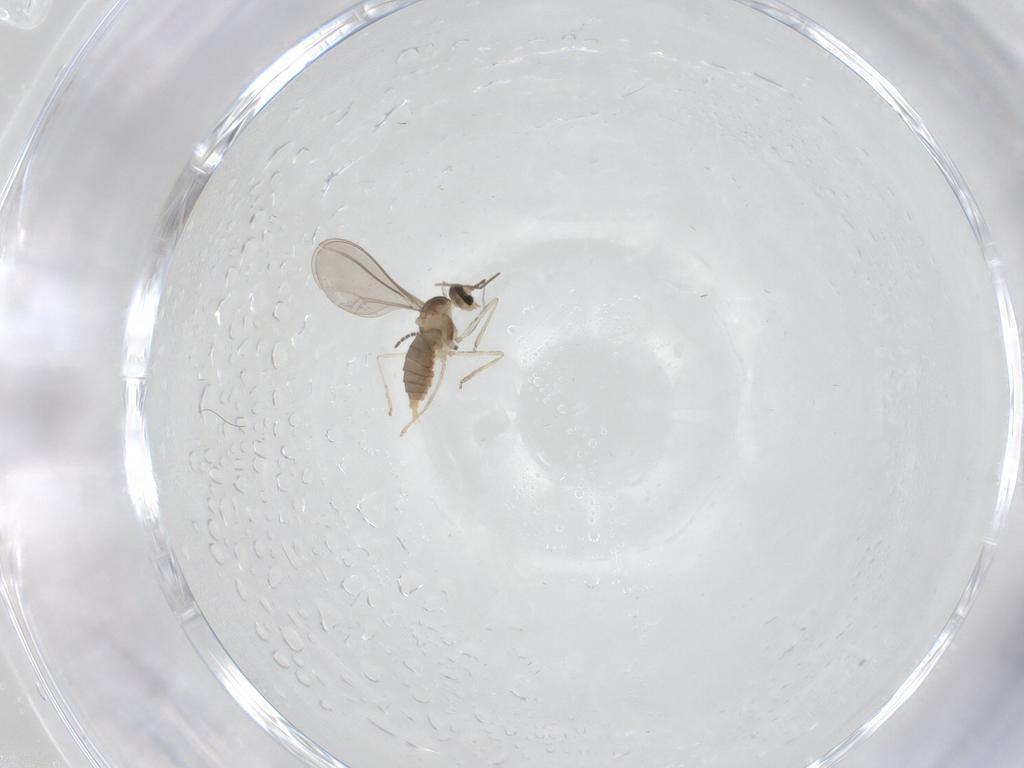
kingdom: Animalia
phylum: Arthropoda
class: Insecta
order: Diptera
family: Cecidomyiidae
